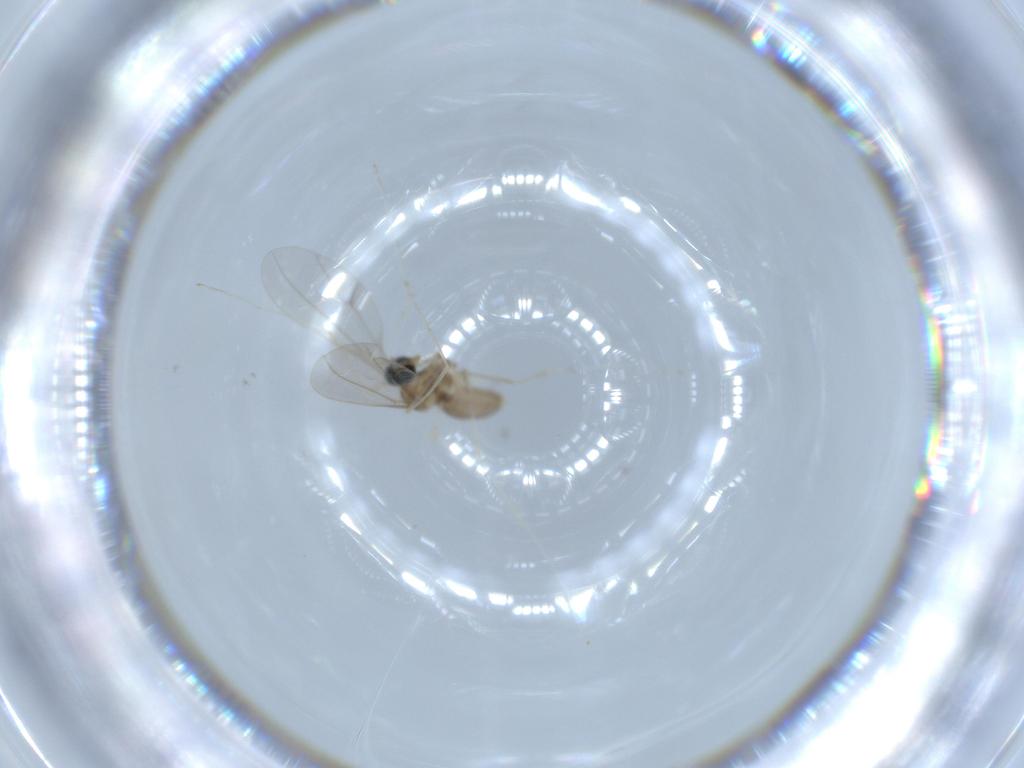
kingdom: Animalia
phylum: Arthropoda
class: Insecta
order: Diptera
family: Cecidomyiidae
